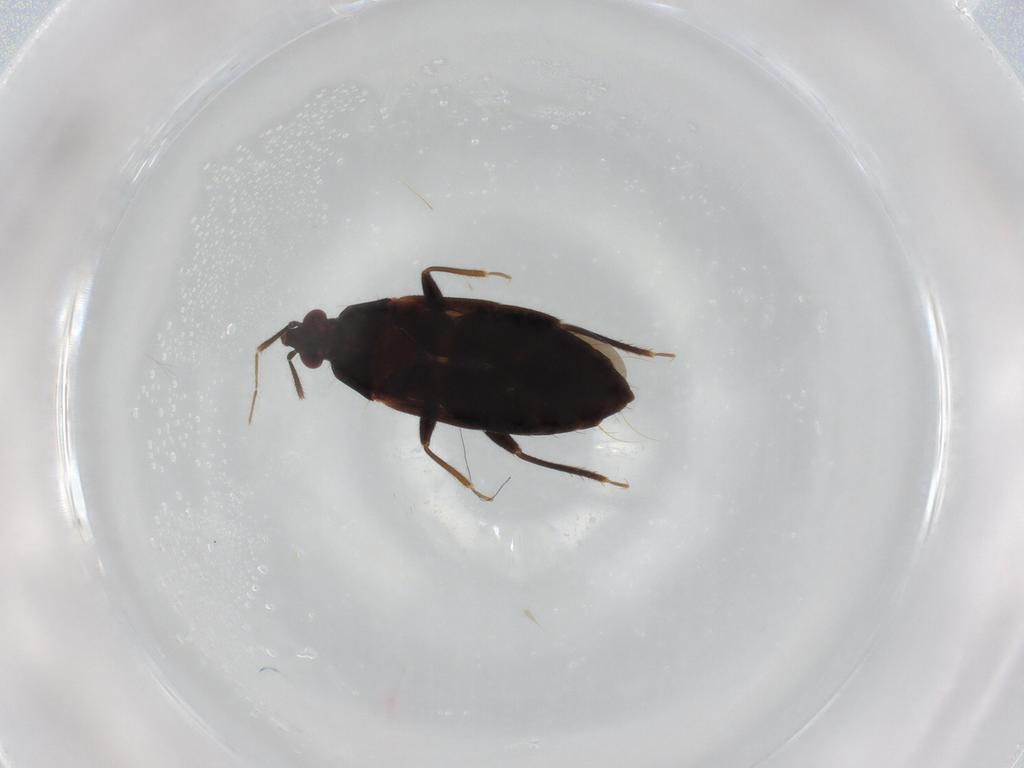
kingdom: Animalia
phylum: Arthropoda
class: Insecta
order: Hemiptera
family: Anthocoridae
